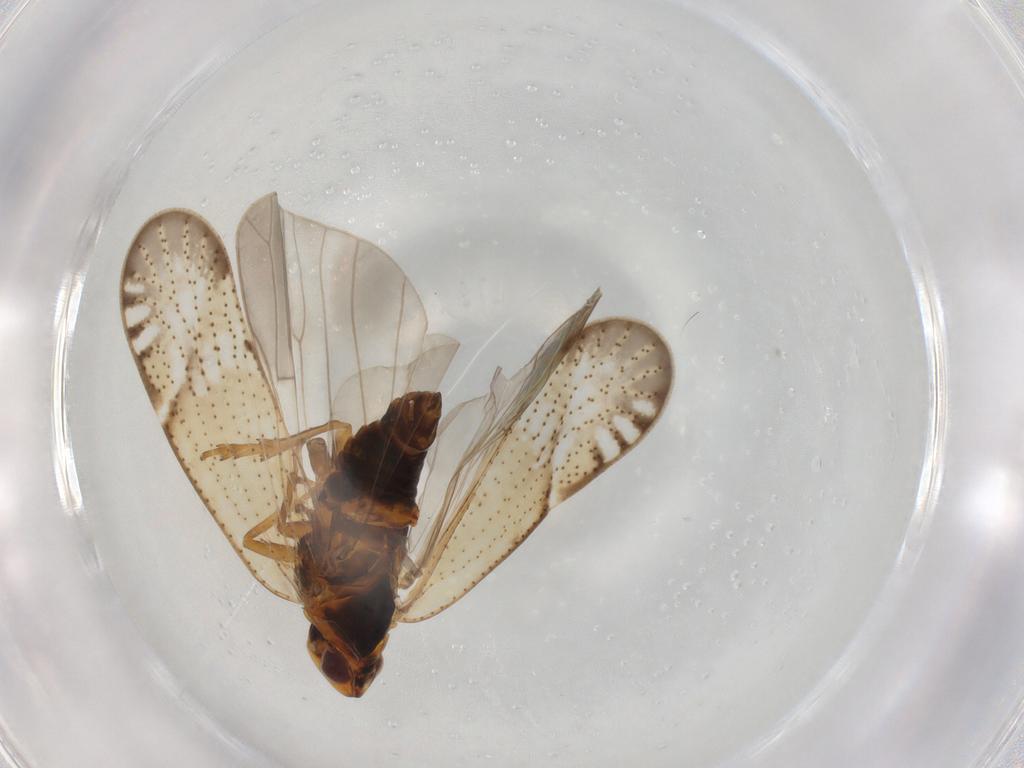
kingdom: Animalia
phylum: Arthropoda
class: Insecta
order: Hemiptera
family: Cixiidae
